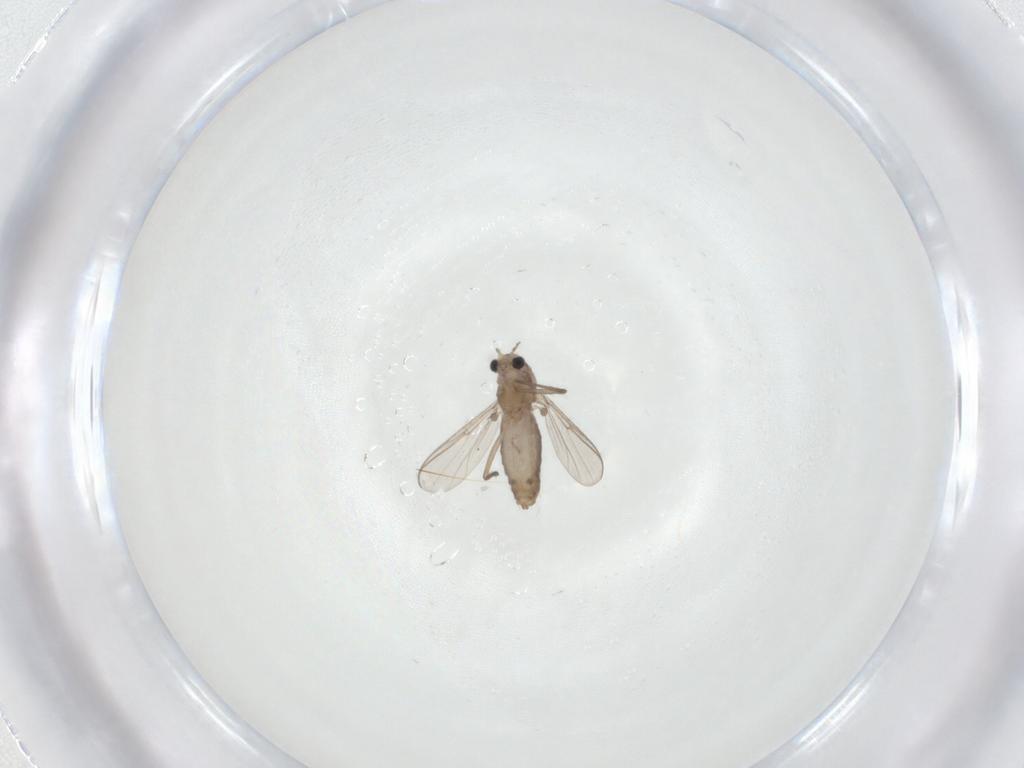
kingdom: Animalia
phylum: Arthropoda
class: Insecta
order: Diptera
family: Chironomidae
